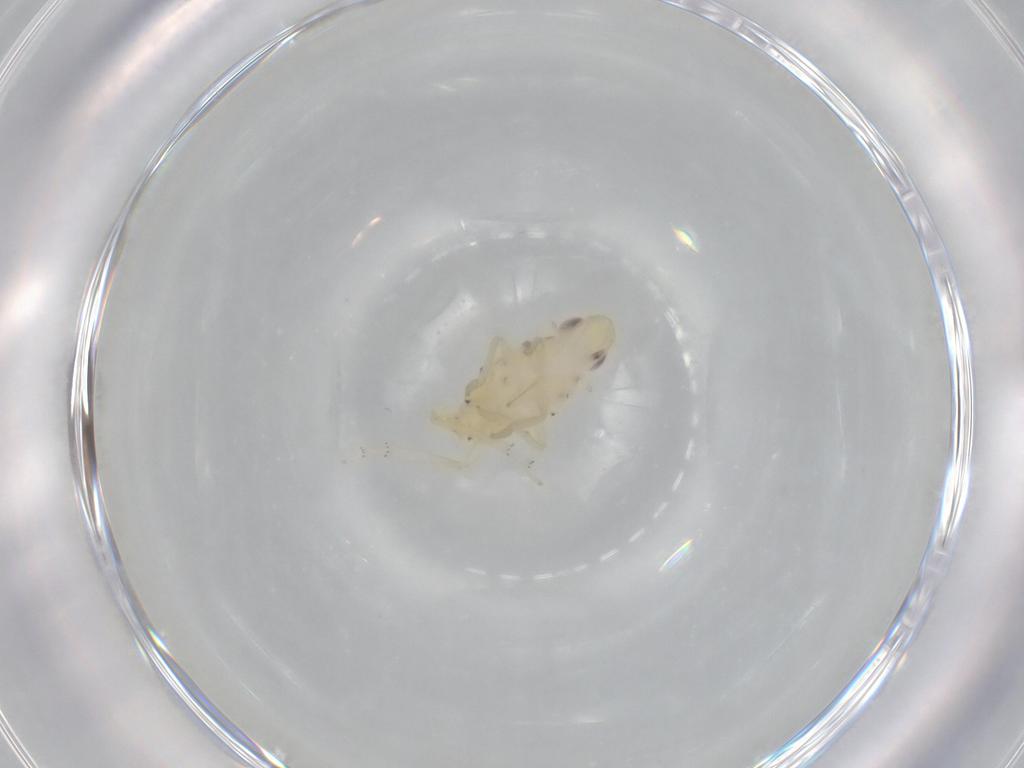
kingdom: Animalia
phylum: Arthropoda
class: Insecta
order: Hemiptera
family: Tropiduchidae
